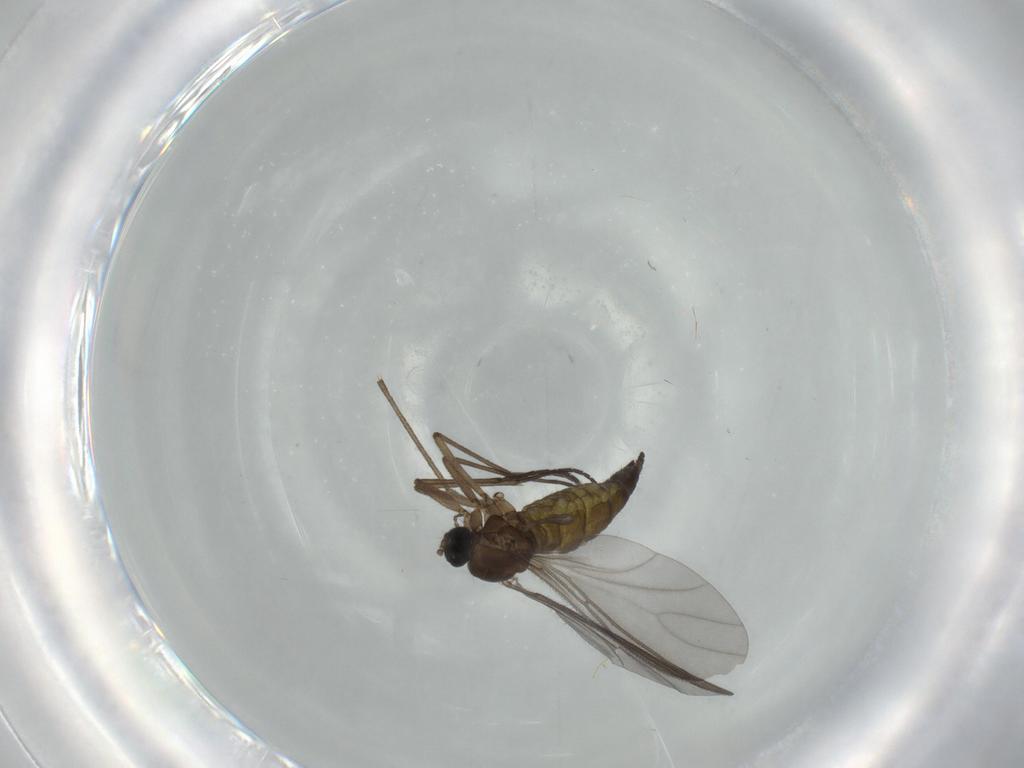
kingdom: Animalia
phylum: Arthropoda
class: Insecta
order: Diptera
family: Sciaridae
